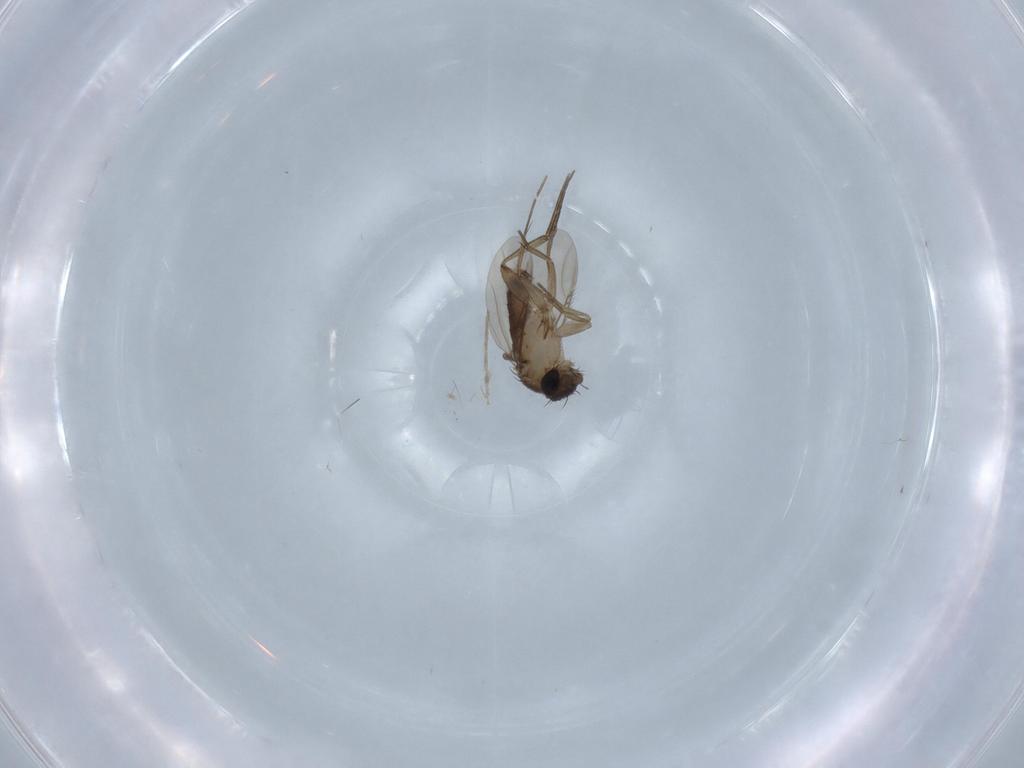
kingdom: Animalia
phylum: Arthropoda
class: Insecta
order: Diptera
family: Phoridae
